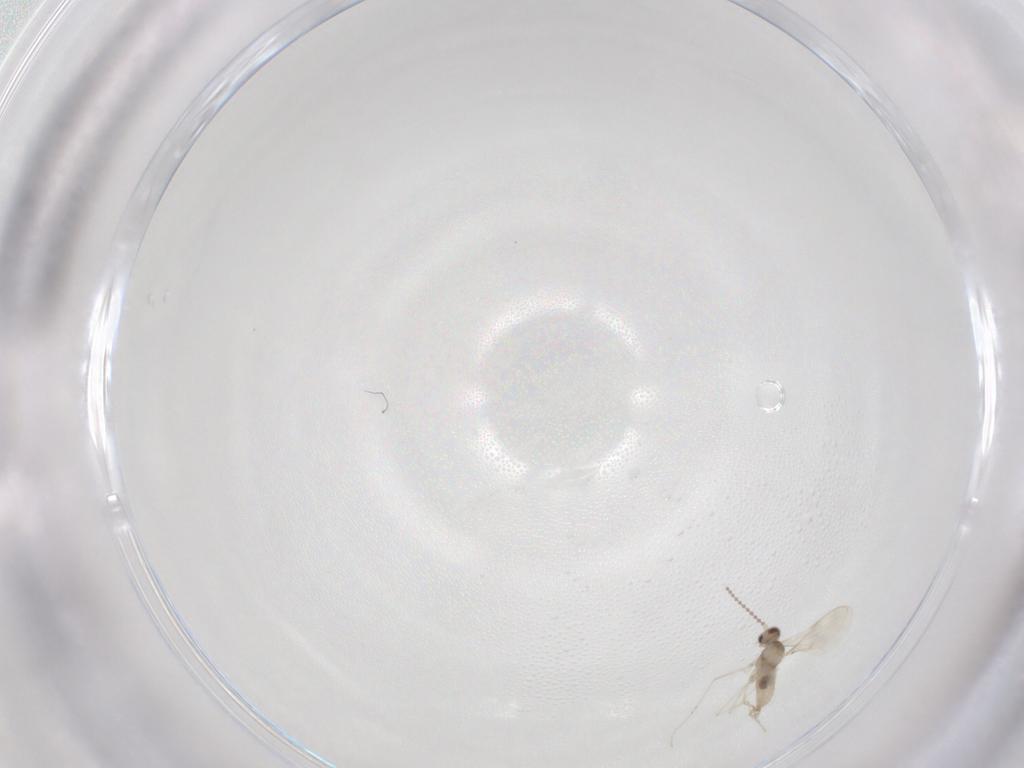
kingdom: Animalia
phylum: Arthropoda
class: Insecta
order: Diptera
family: Cecidomyiidae
